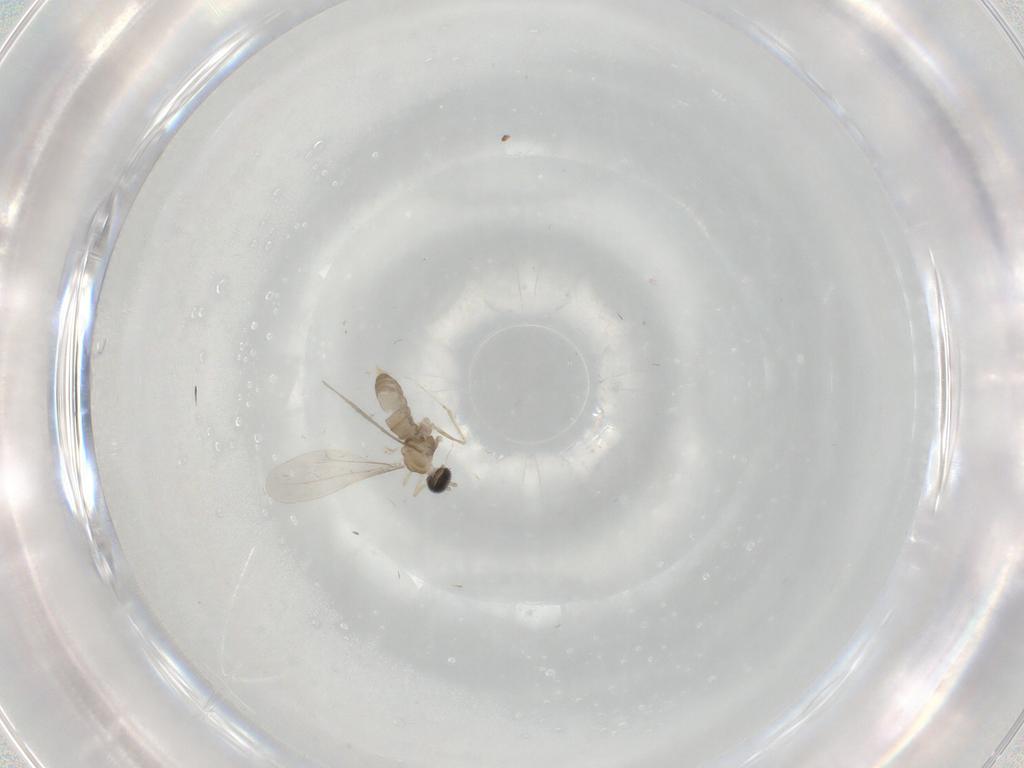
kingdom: Animalia
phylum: Arthropoda
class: Insecta
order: Diptera
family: Cecidomyiidae
